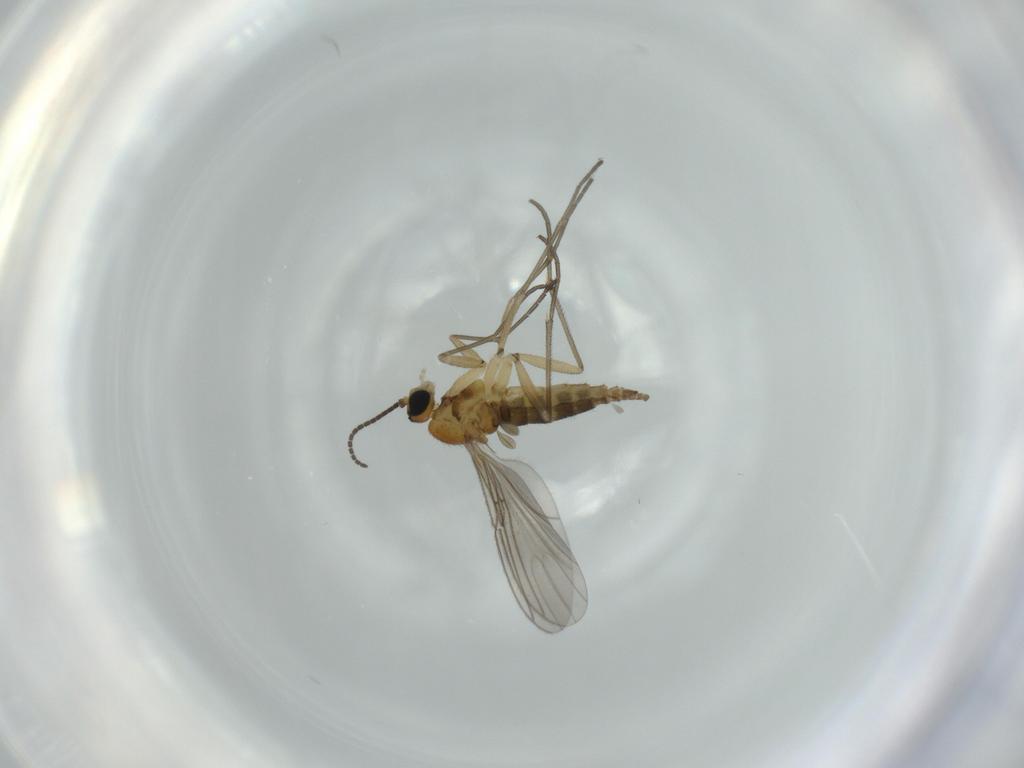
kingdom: Animalia
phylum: Arthropoda
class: Insecta
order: Diptera
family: Sciaridae
